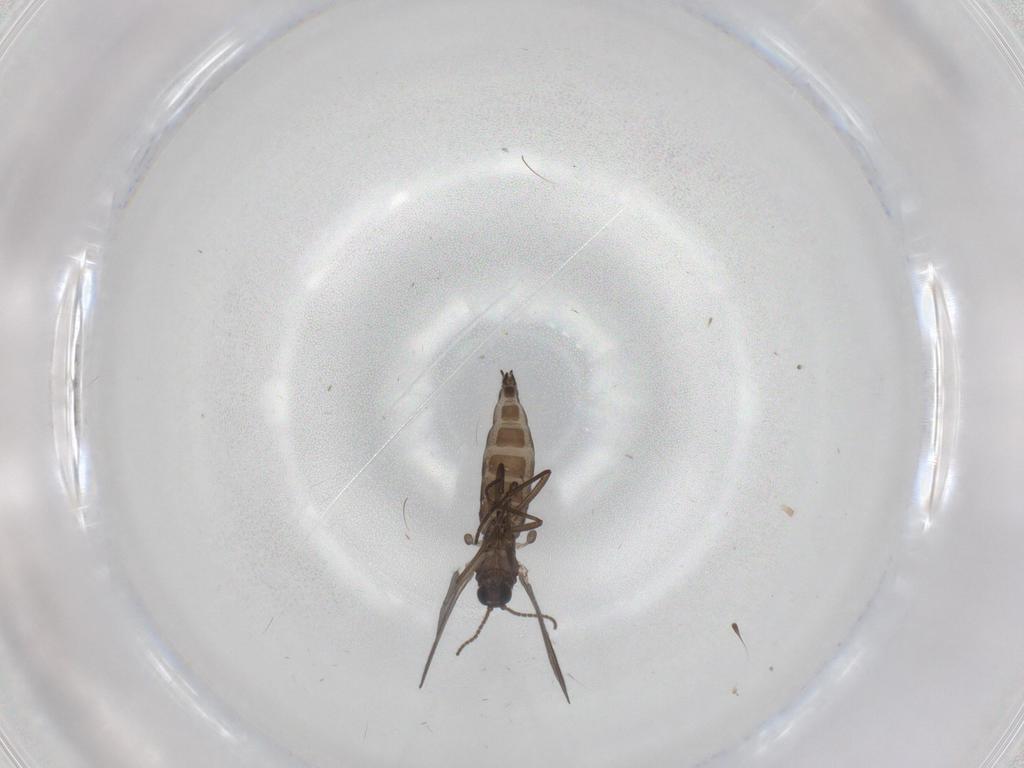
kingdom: Animalia
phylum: Arthropoda
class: Insecta
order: Diptera
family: Sciaridae
